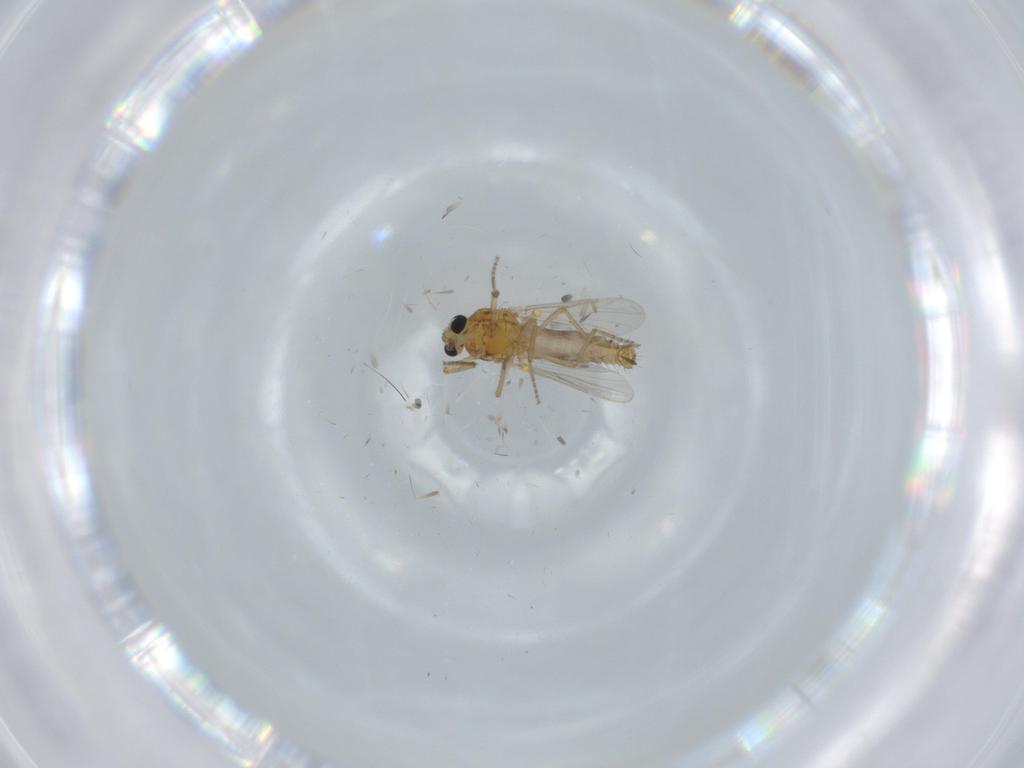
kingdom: Animalia
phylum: Arthropoda
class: Insecta
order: Diptera
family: Ceratopogonidae
